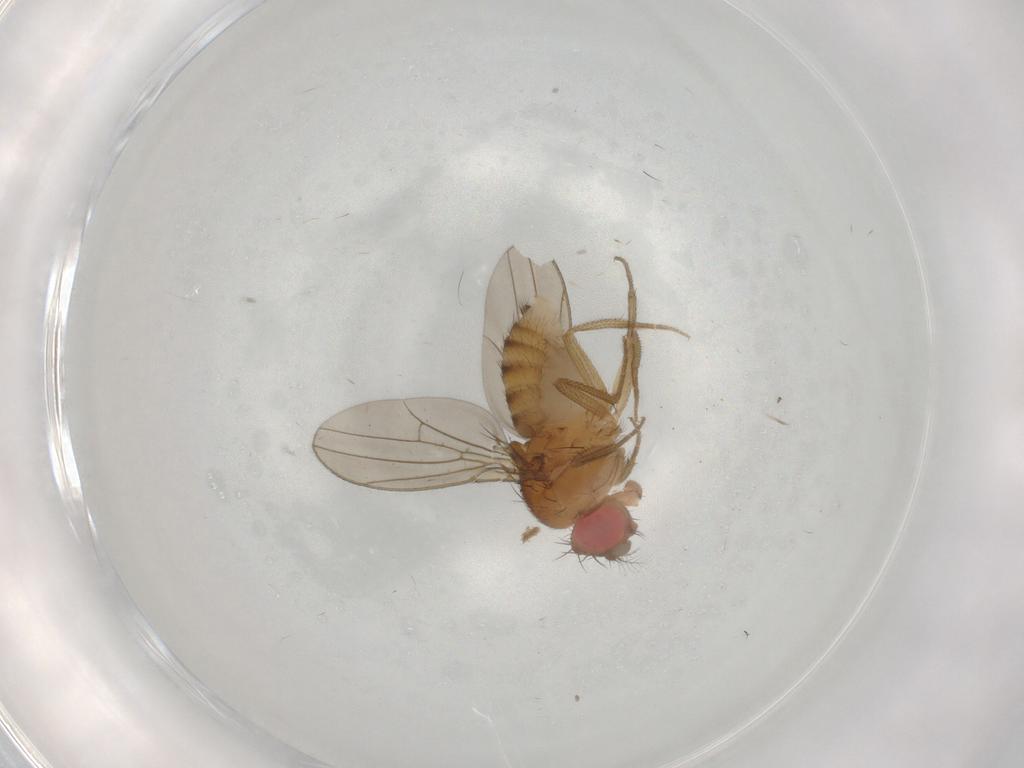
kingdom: Animalia
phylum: Arthropoda
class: Insecta
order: Diptera
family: Drosophilidae
